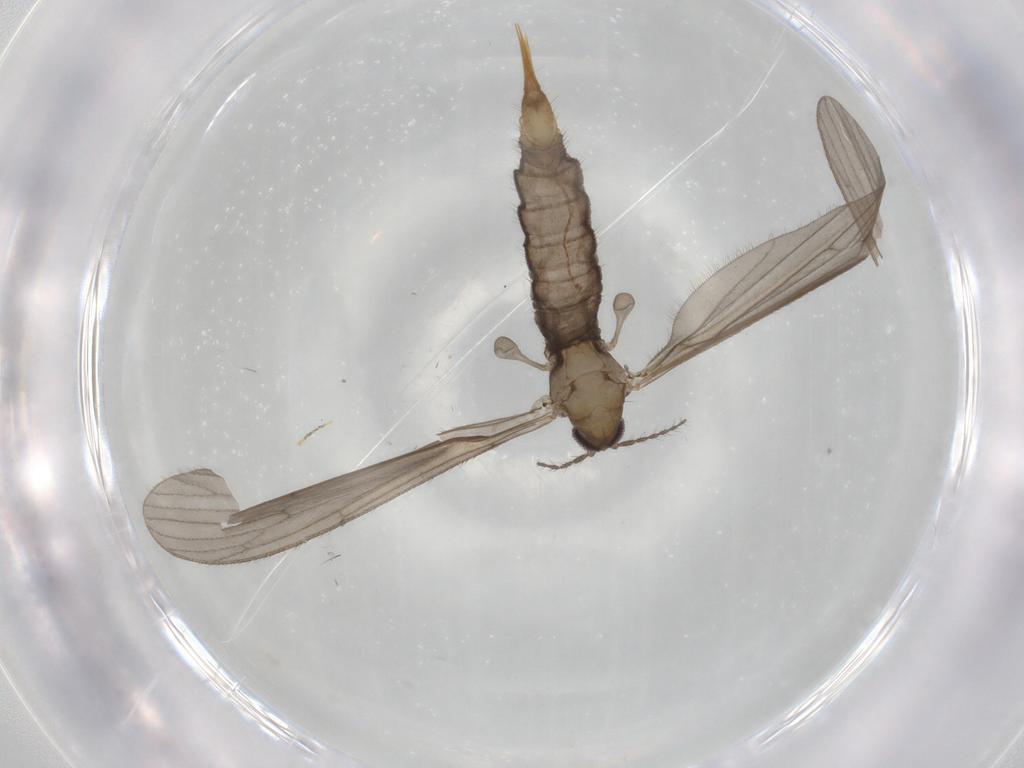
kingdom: Animalia
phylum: Arthropoda
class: Insecta
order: Diptera
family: Limoniidae
